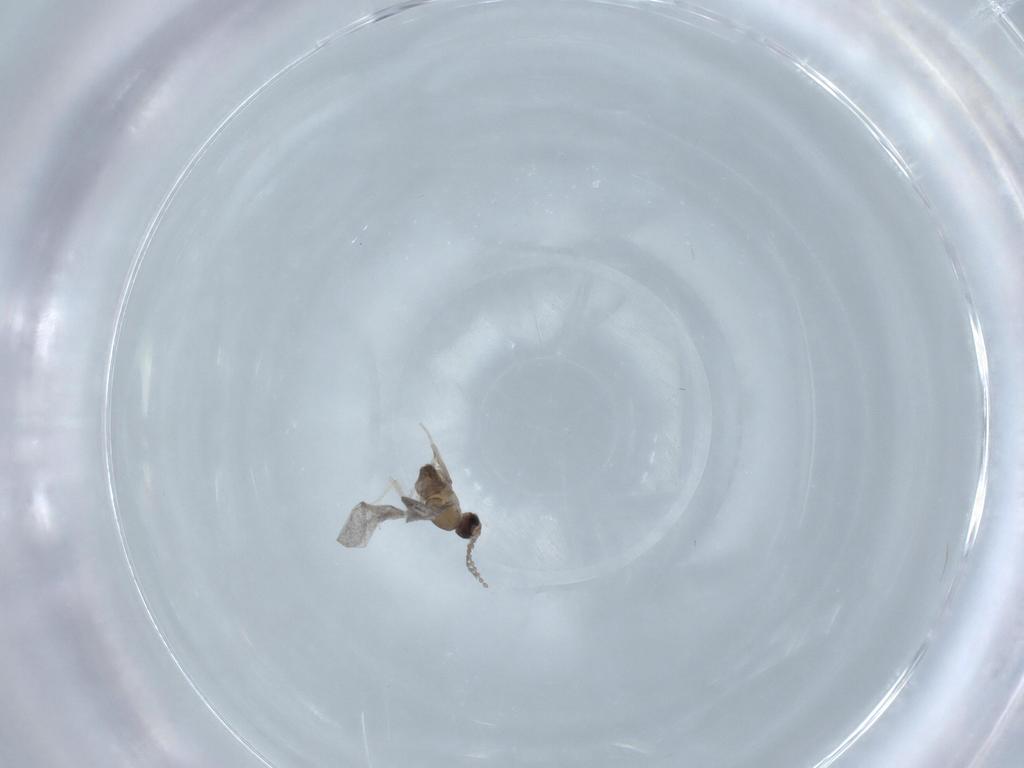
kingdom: Animalia
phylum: Arthropoda
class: Insecta
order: Diptera
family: Cecidomyiidae
